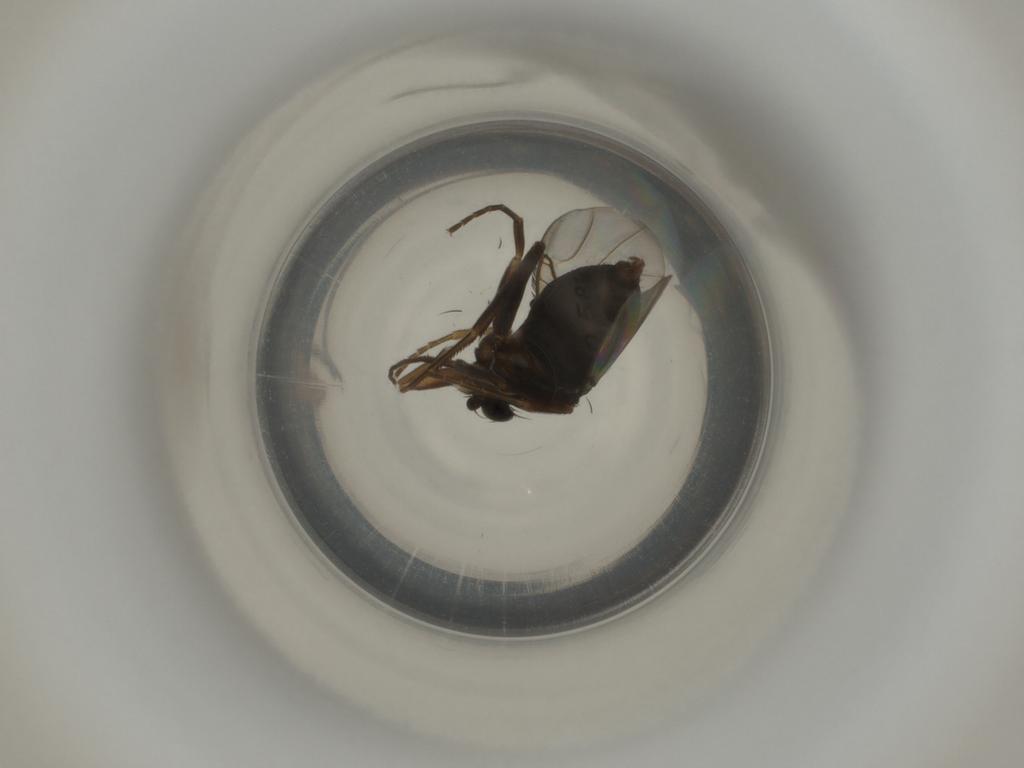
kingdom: Animalia
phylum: Arthropoda
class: Insecta
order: Diptera
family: Phoridae
